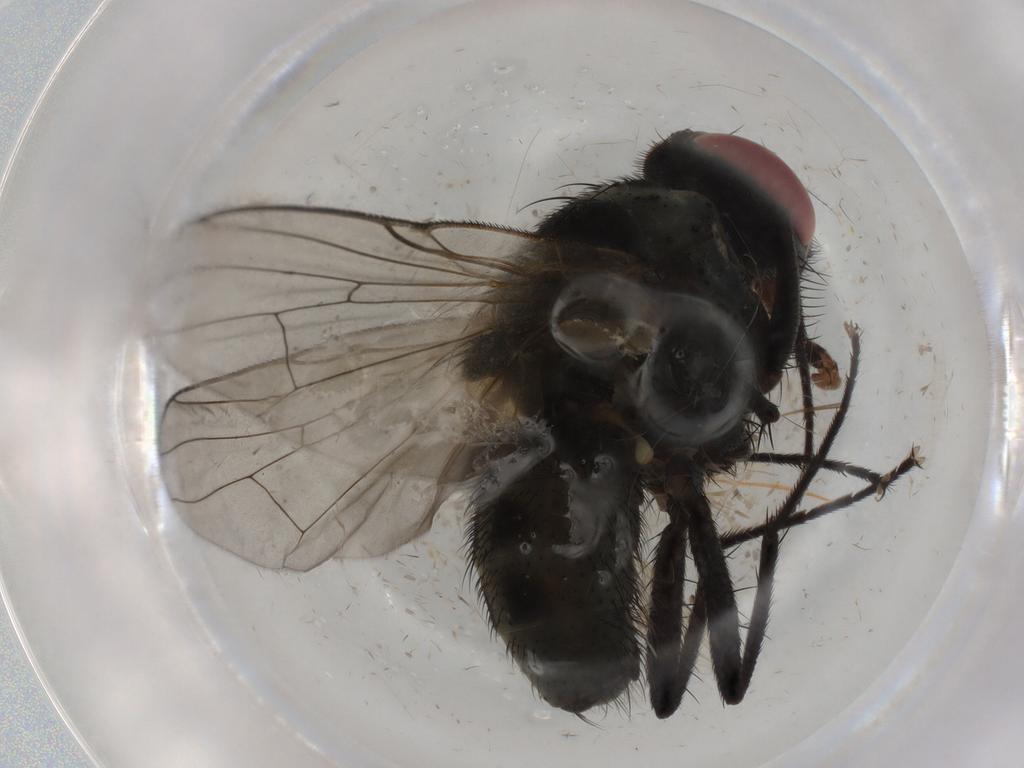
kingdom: Animalia
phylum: Arthropoda
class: Insecta
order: Diptera
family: Muscidae
